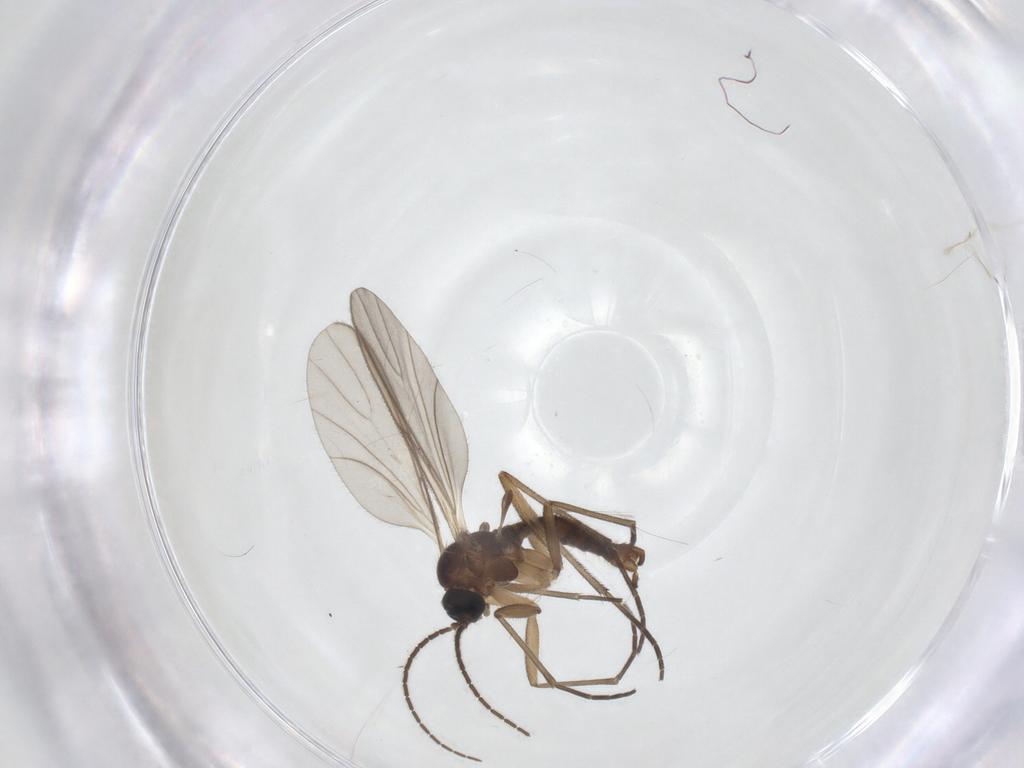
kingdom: Animalia
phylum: Arthropoda
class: Insecta
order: Diptera
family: Sciaridae
